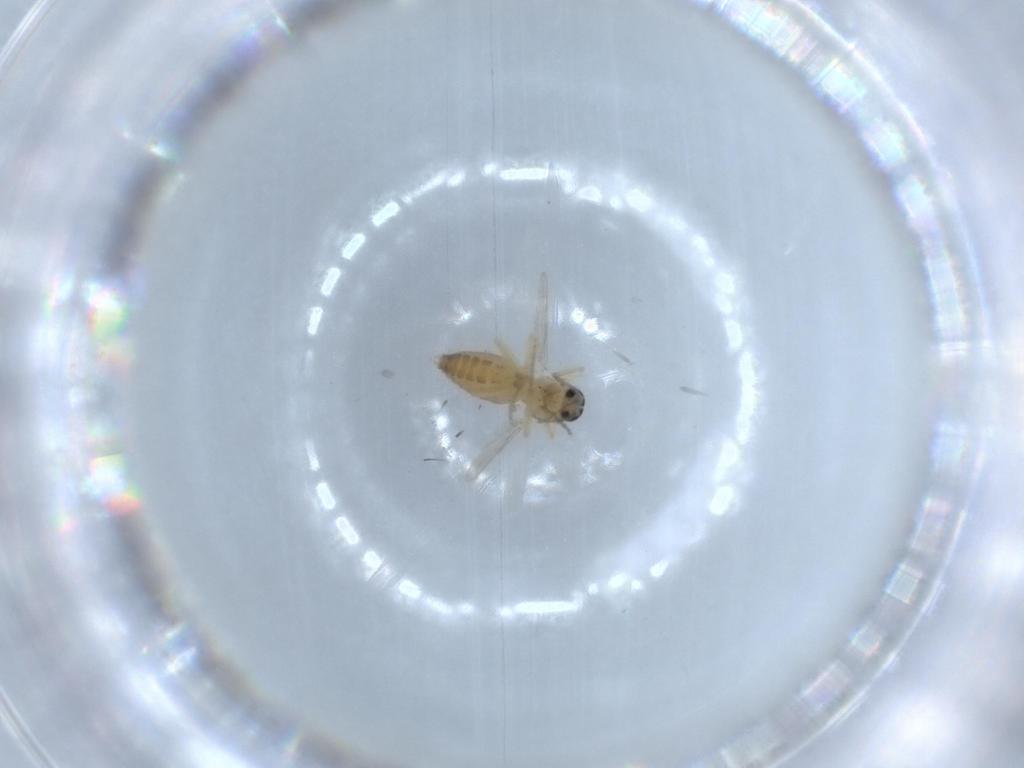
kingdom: Animalia
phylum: Arthropoda
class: Insecta
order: Diptera
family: Ceratopogonidae
